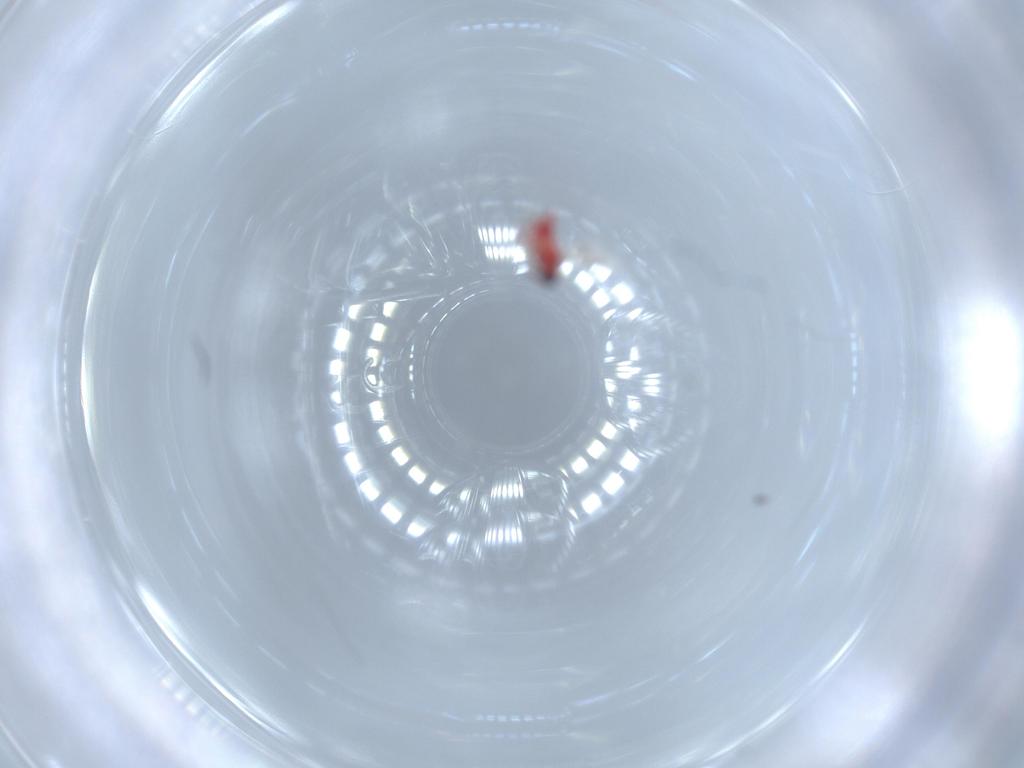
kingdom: Animalia
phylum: Arthropoda
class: Insecta
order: Hymenoptera
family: Trichogrammatidae
